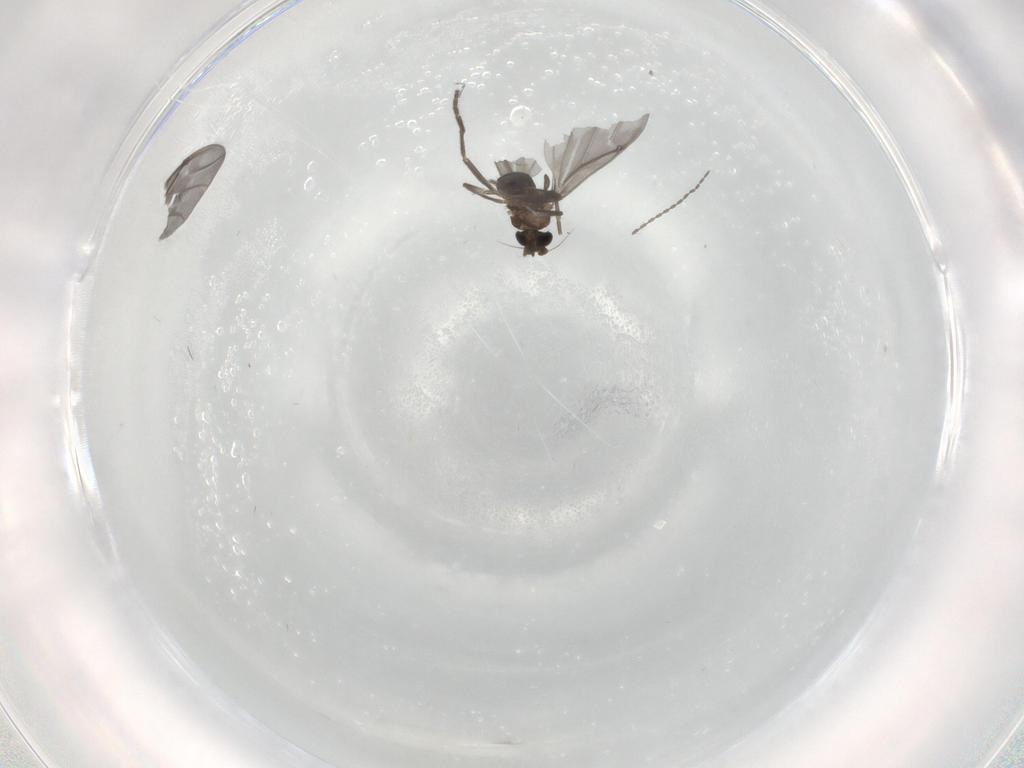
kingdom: Animalia
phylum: Arthropoda
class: Insecta
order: Diptera
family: Phoridae
